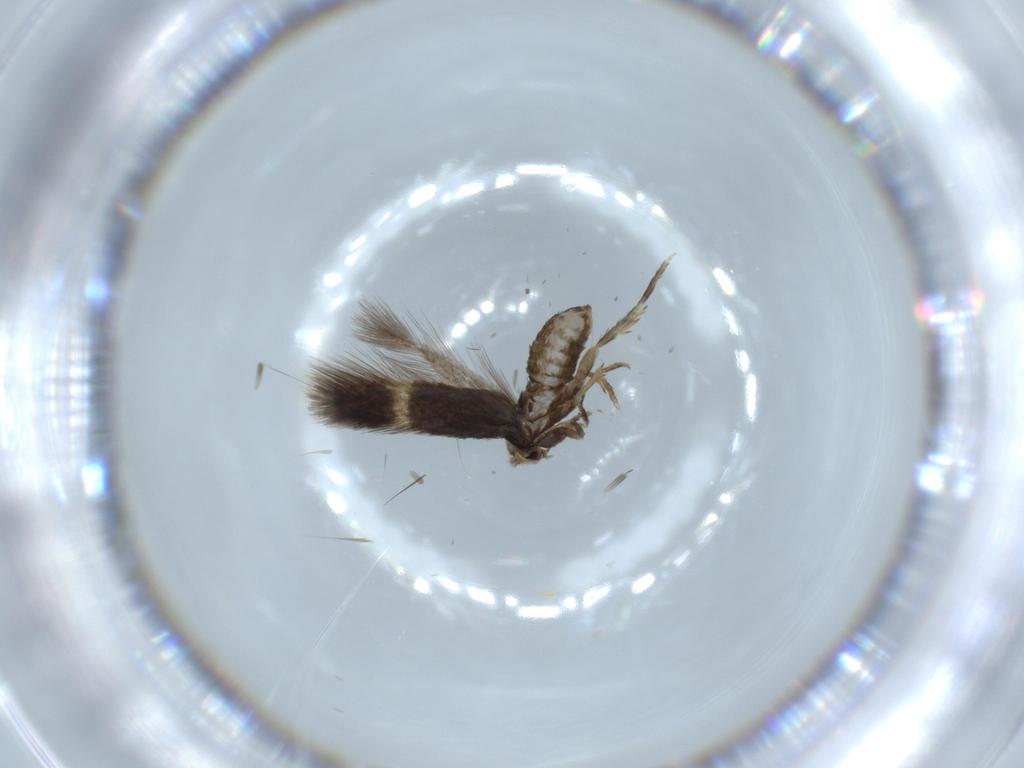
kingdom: Animalia
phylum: Arthropoda
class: Insecta
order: Lepidoptera
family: Nepticulidae
